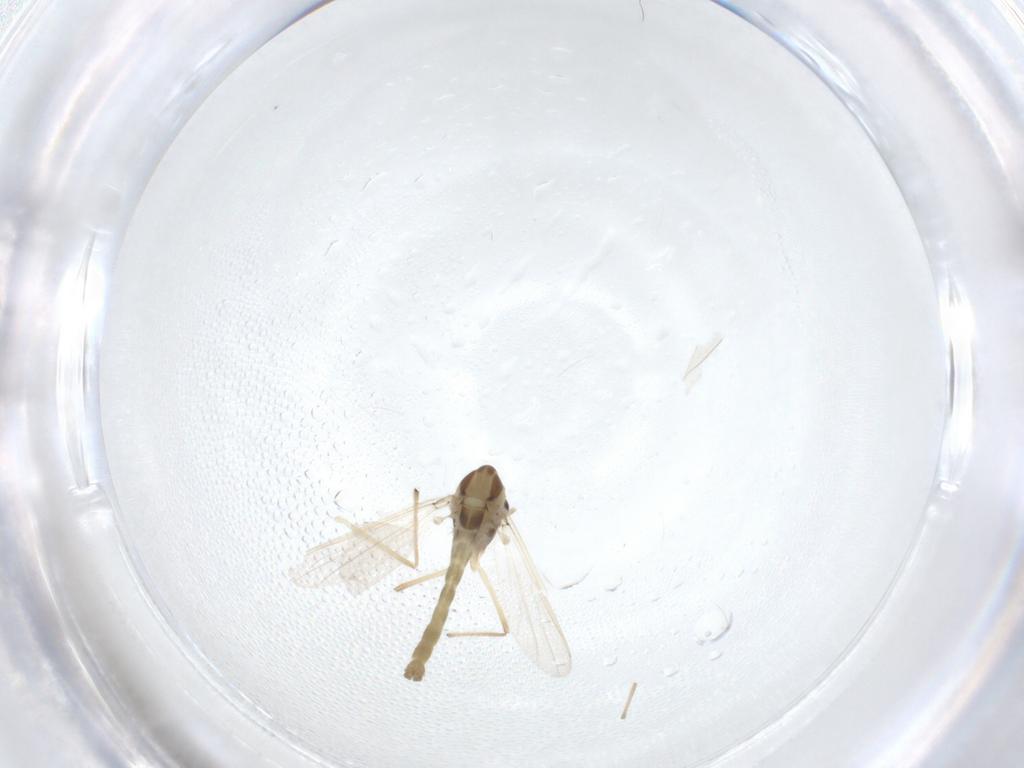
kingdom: Animalia
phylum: Arthropoda
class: Insecta
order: Diptera
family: Chironomidae
